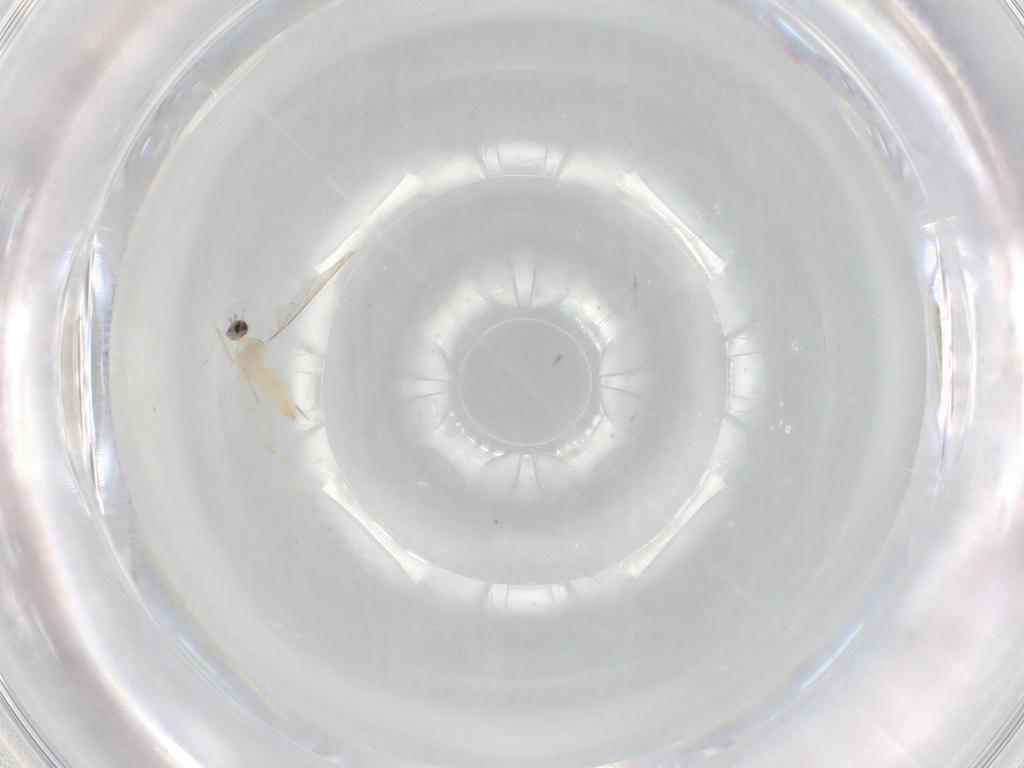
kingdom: Animalia
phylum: Arthropoda
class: Insecta
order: Diptera
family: Cecidomyiidae
